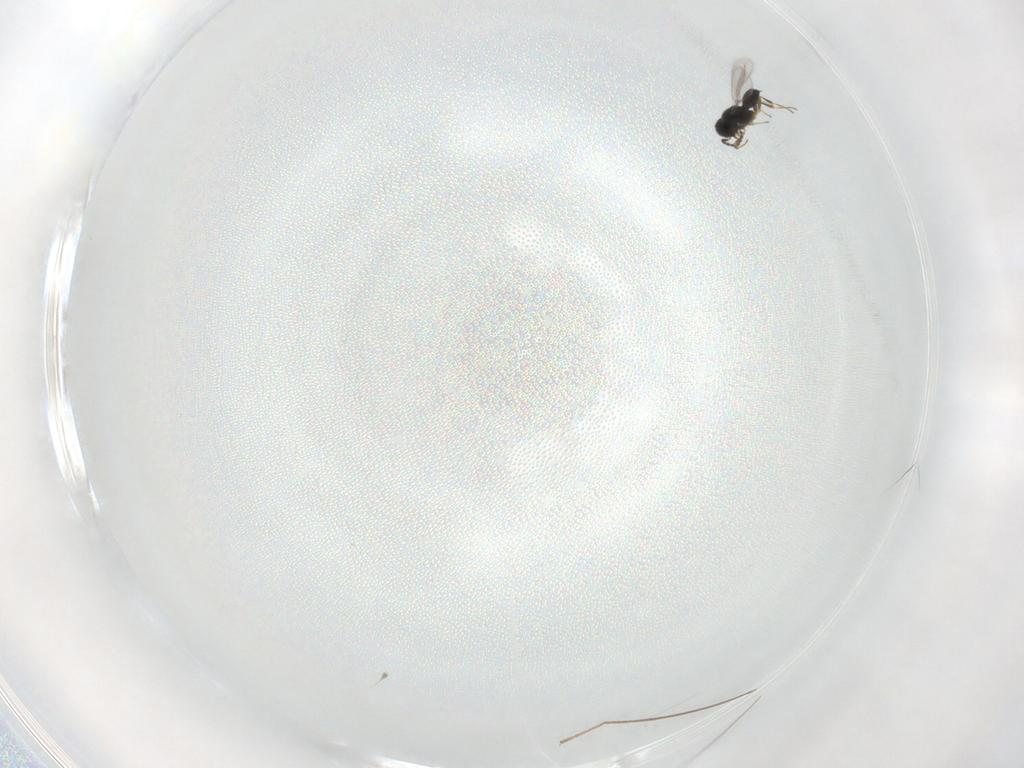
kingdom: Animalia
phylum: Arthropoda
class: Insecta
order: Hymenoptera
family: Scelionidae
